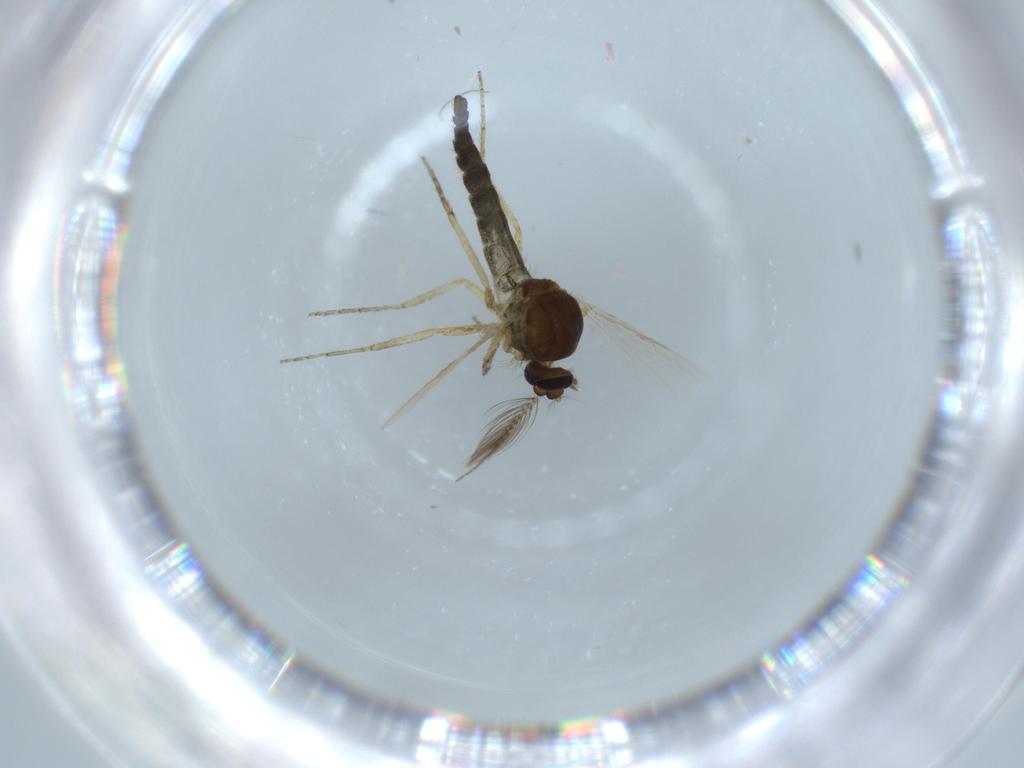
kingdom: Animalia
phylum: Arthropoda
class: Insecta
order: Diptera
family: Ceratopogonidae
